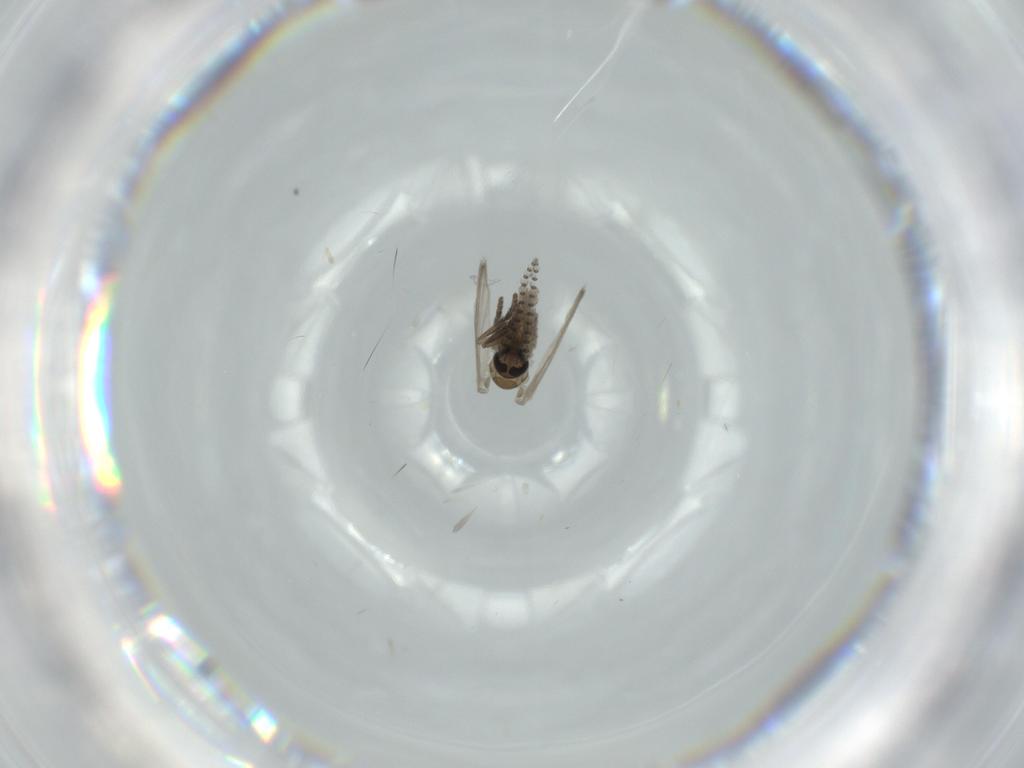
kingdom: Animalia
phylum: Arthropoda
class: Insecta
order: Diptera
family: Psychodidae
